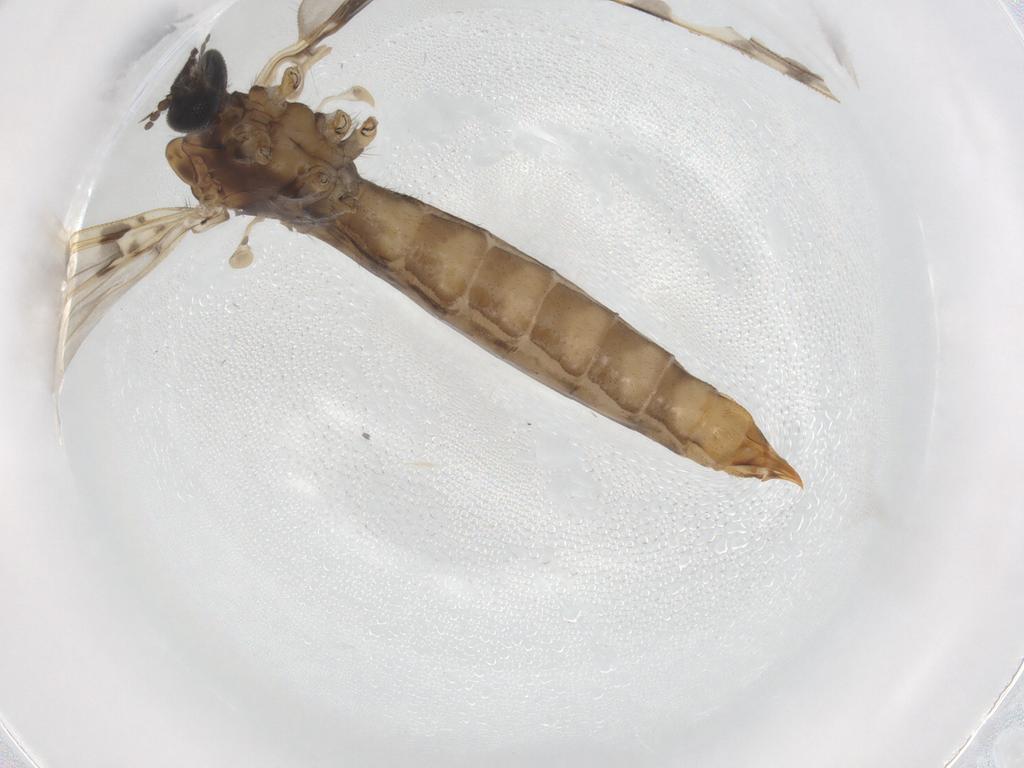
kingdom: Animalia
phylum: Arthropoda
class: Insecta
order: Diptera
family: Limoniidae
